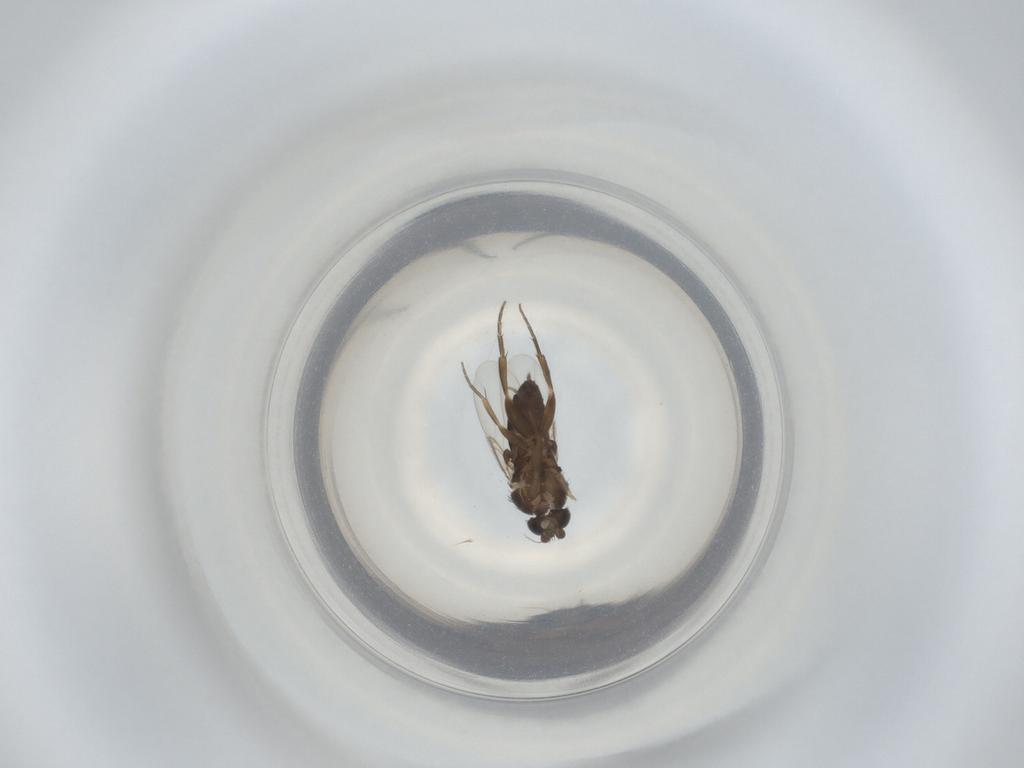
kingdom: Animalia
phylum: Arthropoda
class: Insecta
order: Diptera
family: Phoridae
